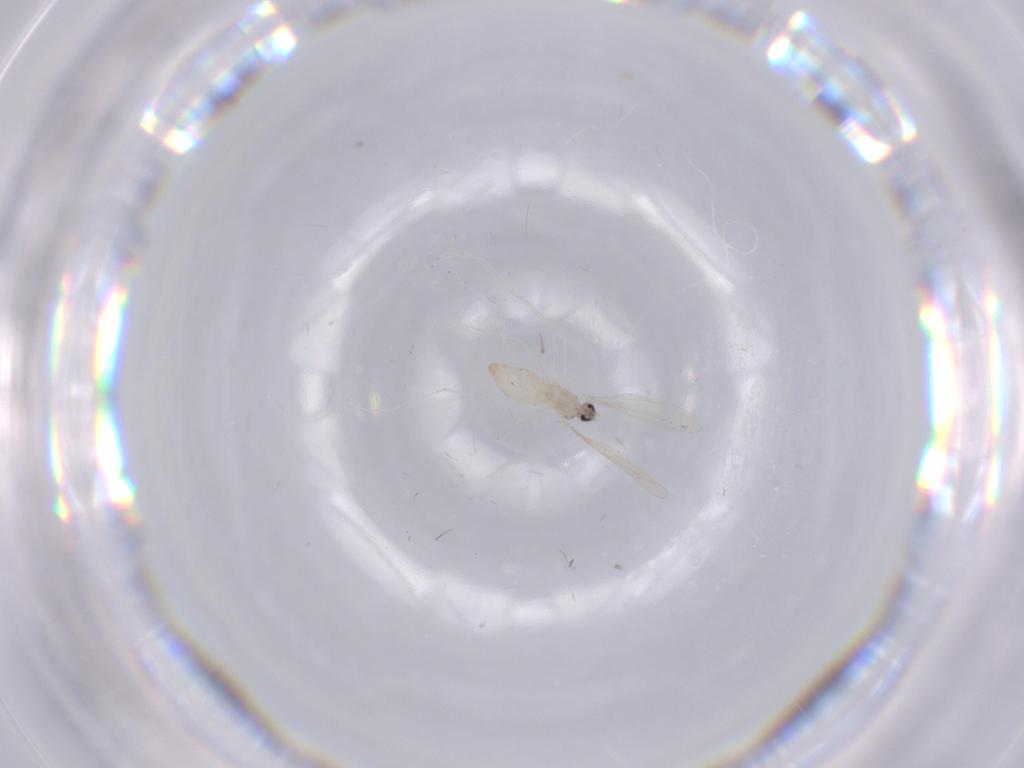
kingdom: Animalia
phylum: Arthropoda
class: Insecta
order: Diptera
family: Cecidomyiidae
